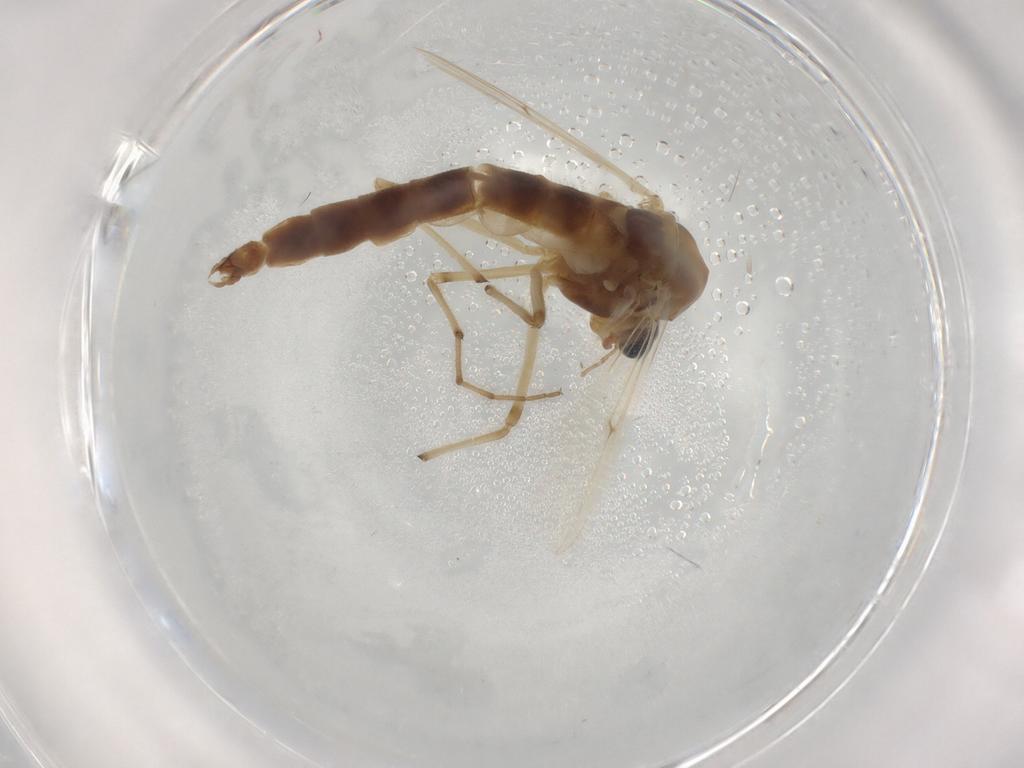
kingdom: Animalia
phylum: Arthropoda
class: Insecta
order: Diptera
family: Chironomidae
